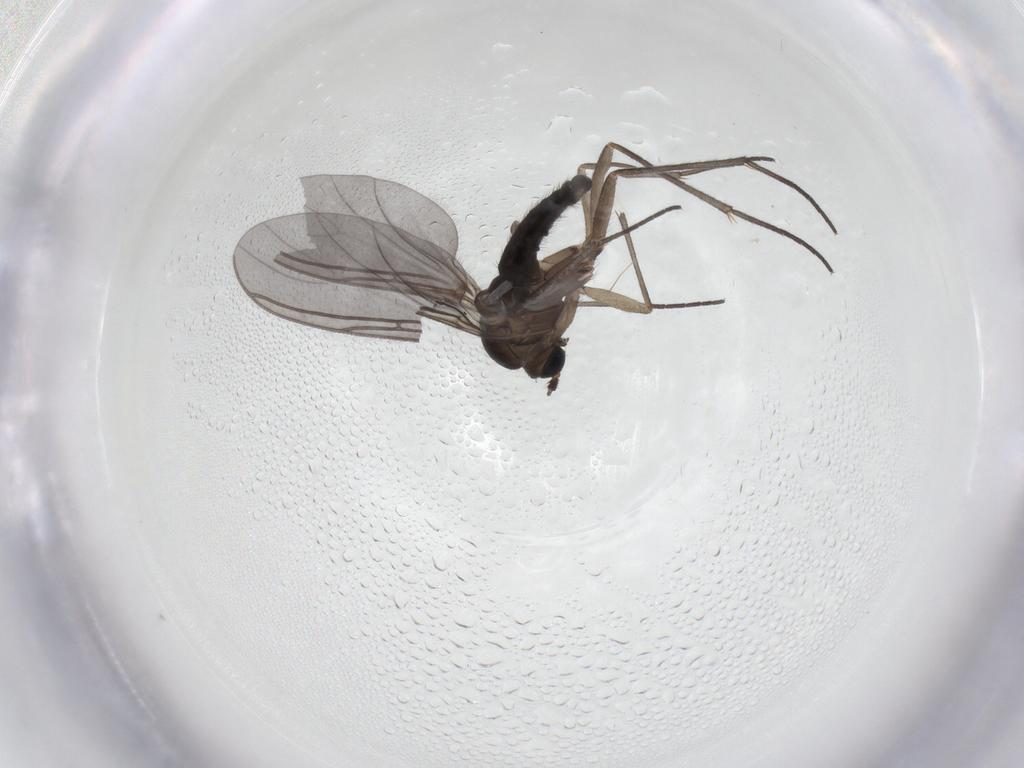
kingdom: Animalia
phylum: Arthropoda
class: Insecta
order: Diptera
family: Sciaridae
